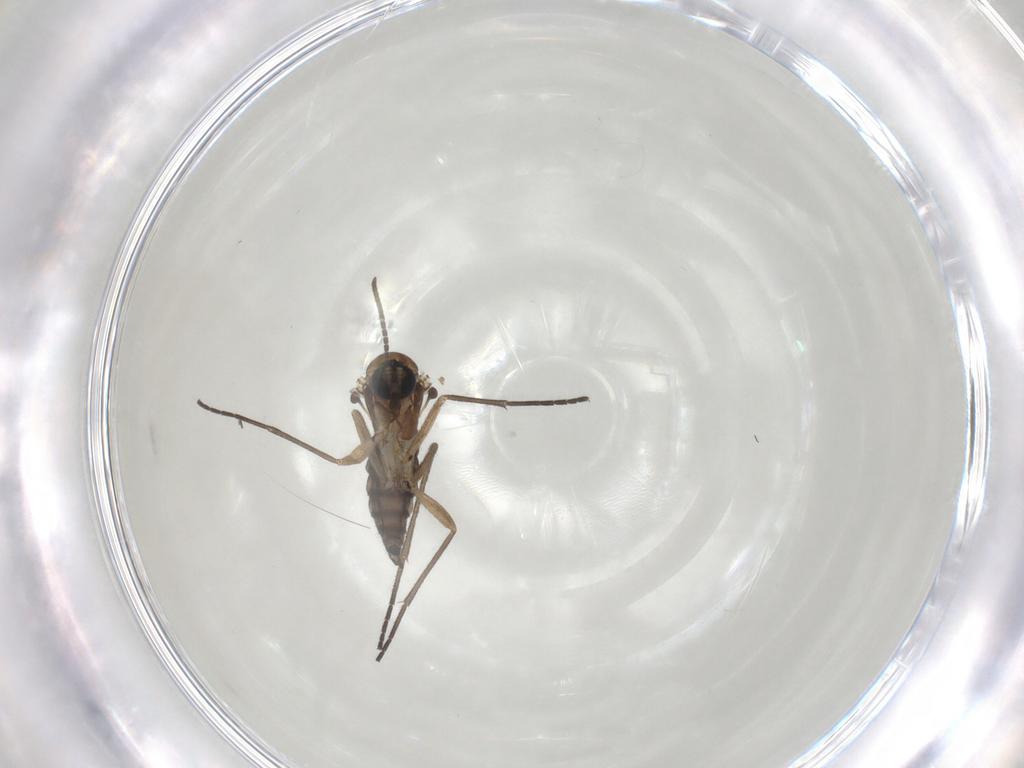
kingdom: Animalia
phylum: Arthropoda
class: Insecta
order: Diptera
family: Sciaridae
